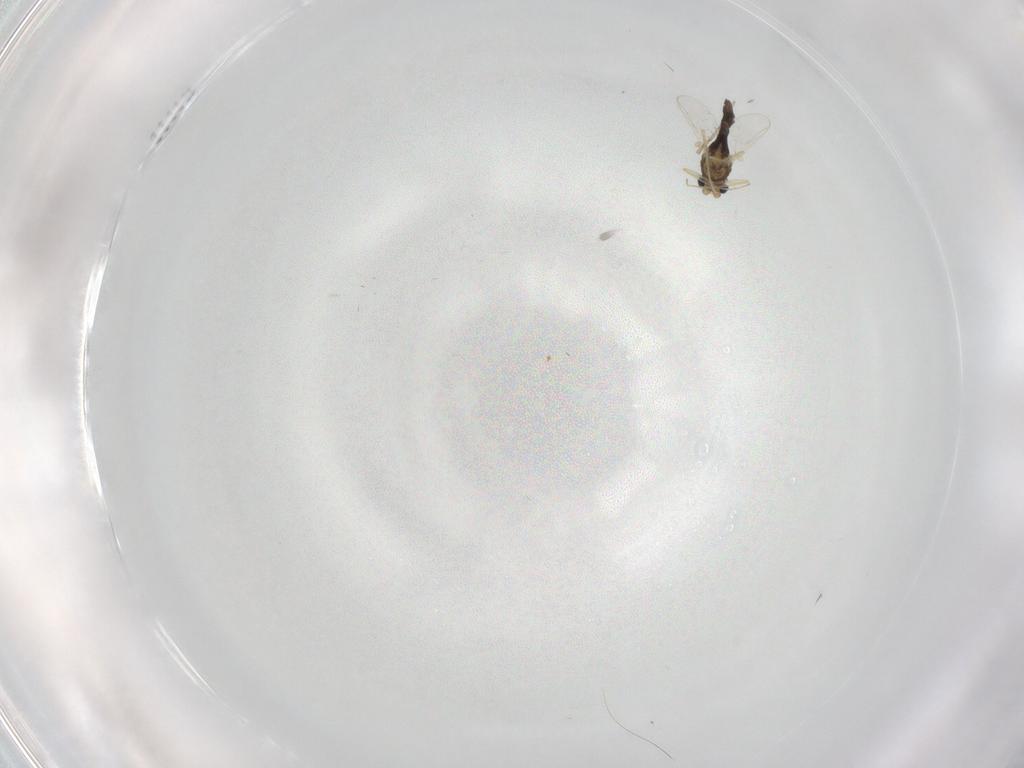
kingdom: Animalia
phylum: Arthropoda
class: Insecta
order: Diptera
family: Chironomidae
